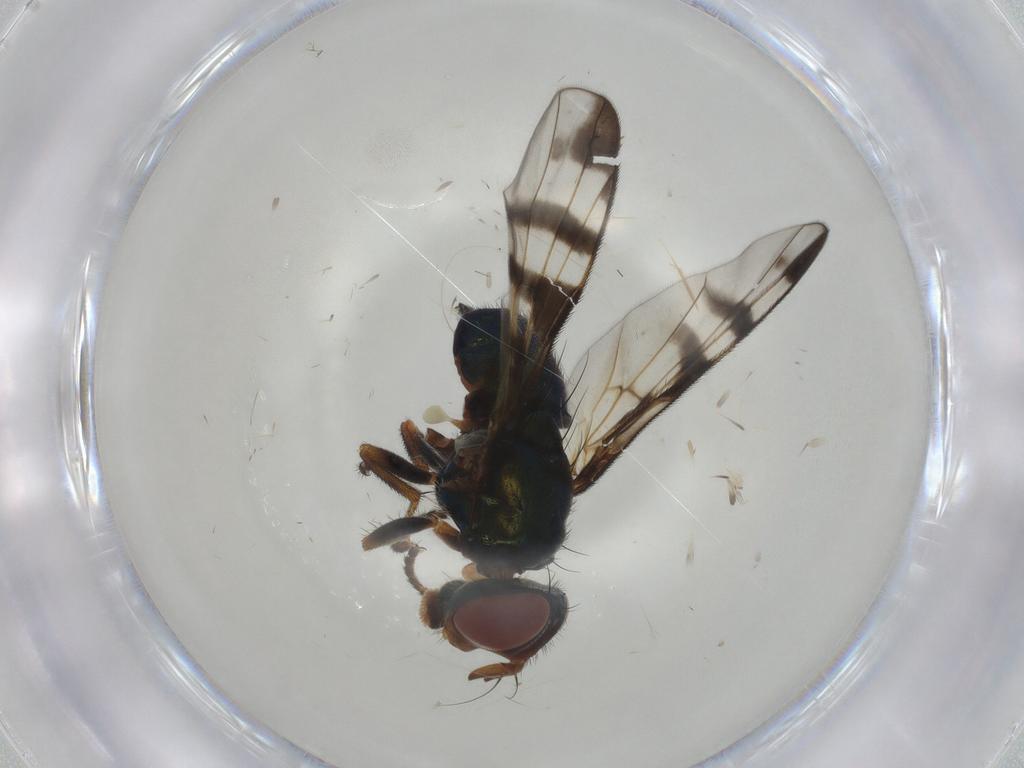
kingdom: Animalia
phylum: Arthropoda
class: Insecta
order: Diptera
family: Platystomatidae
